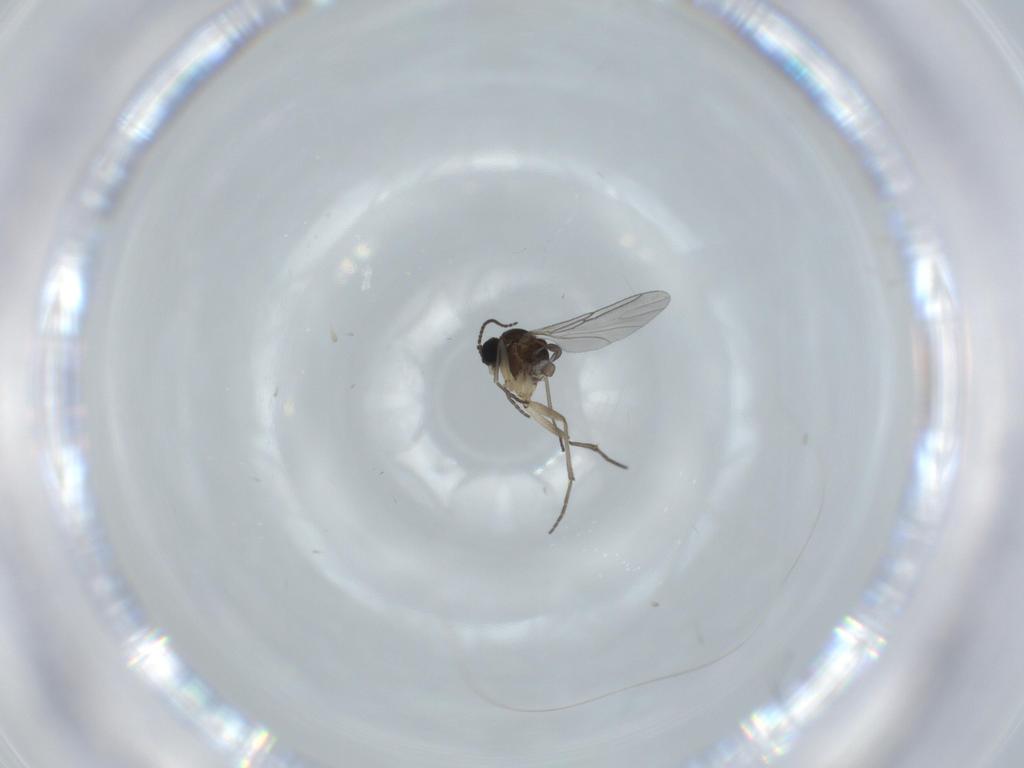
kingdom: Animalia
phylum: Arthropoda
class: Insecta
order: Diptera
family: Sciaridae
